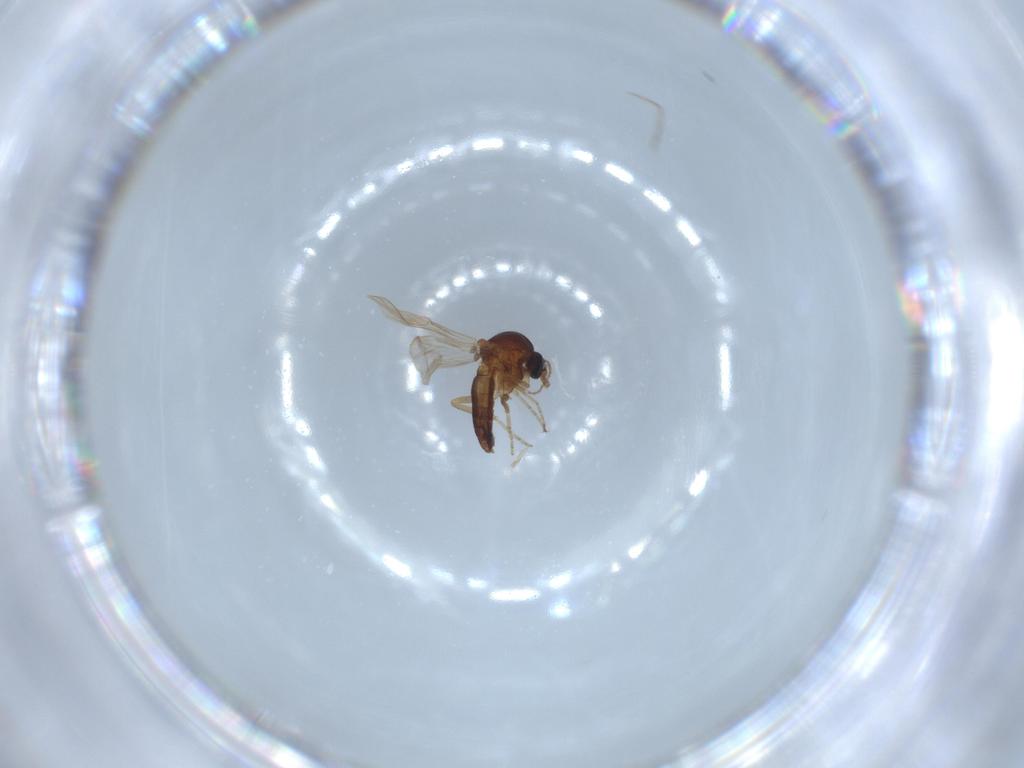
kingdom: Animalia
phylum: Arthropoda
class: Insecta
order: Diptera
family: Ceratopogonidae
